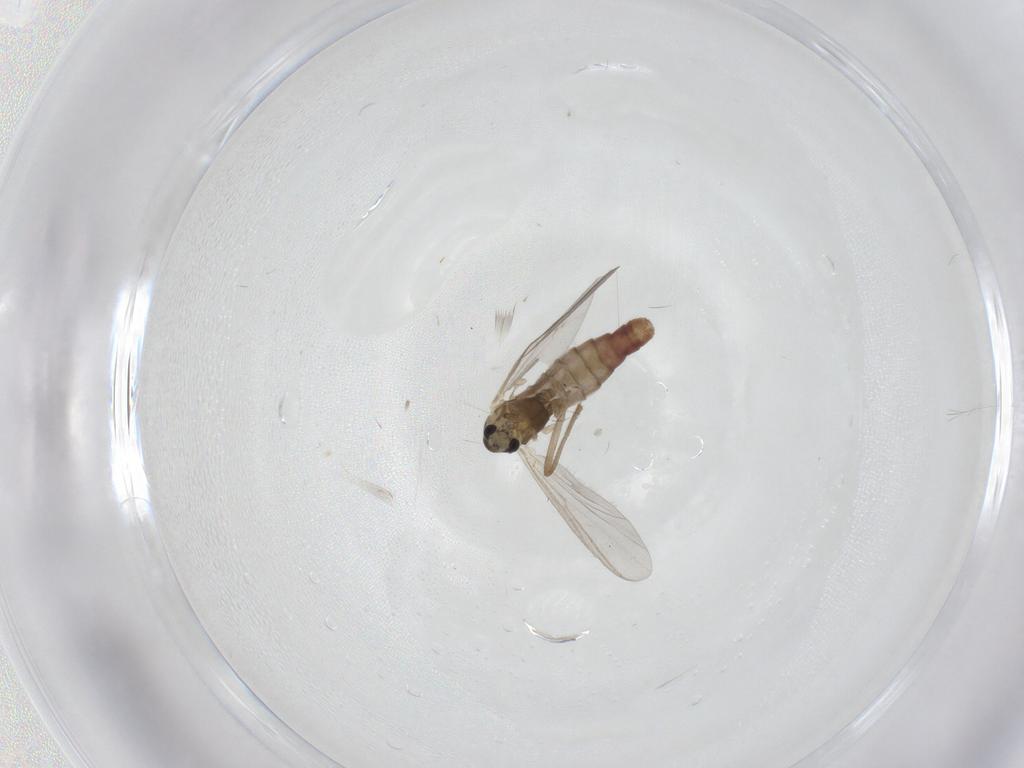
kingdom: Animalia
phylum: Arthropoda
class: Insecta
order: Diptera
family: Chironomidae
